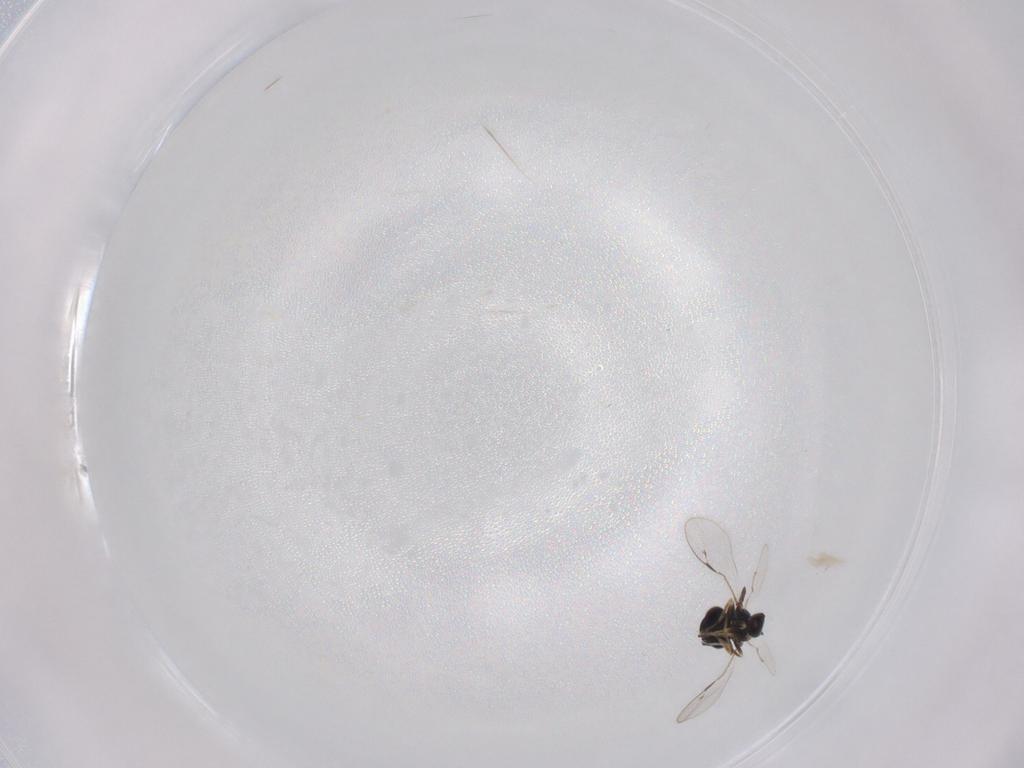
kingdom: Animalia
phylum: Arthropoda
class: Insecta
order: Hymenoptera
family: Pteromalidae
